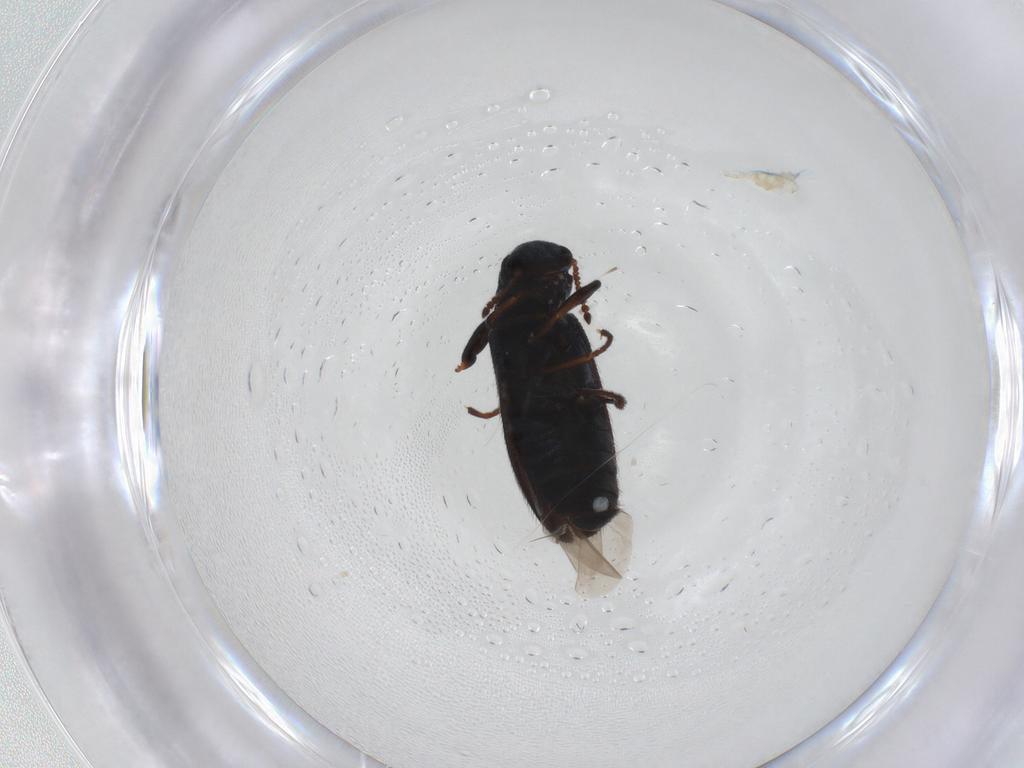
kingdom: Animalia
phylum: Arthropoda
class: Insecta
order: Coleoptera
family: Melyridae
